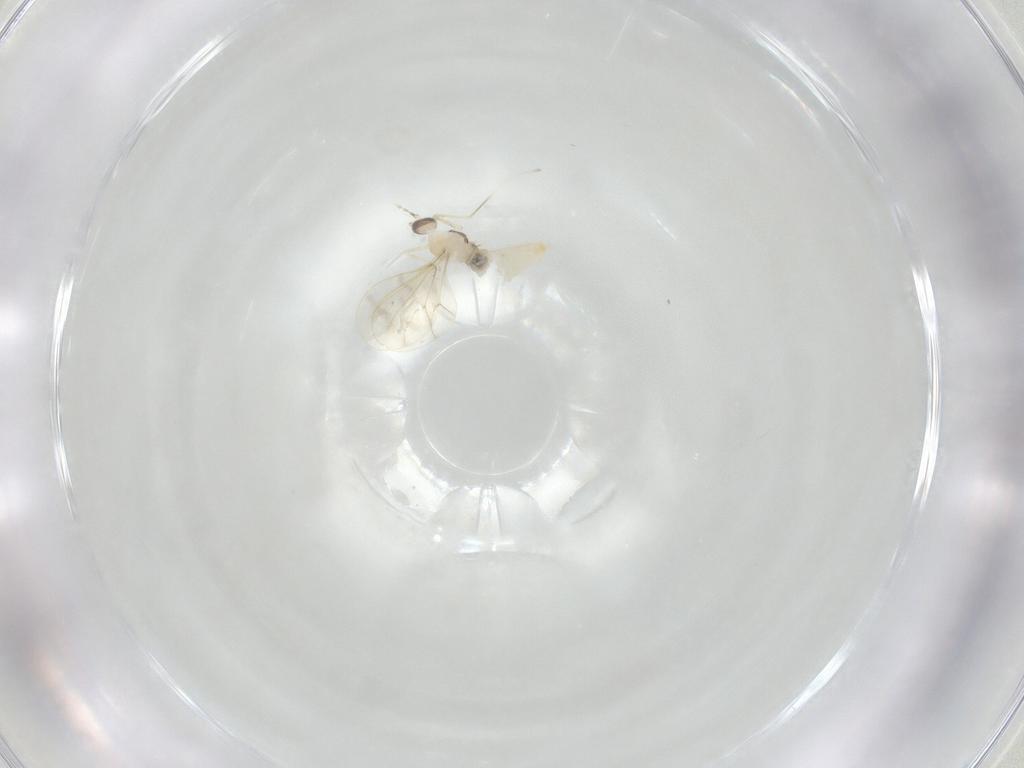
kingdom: Animalia
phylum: Arthropoda
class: Insecta
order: Diptera
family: Cecidomyiidae
